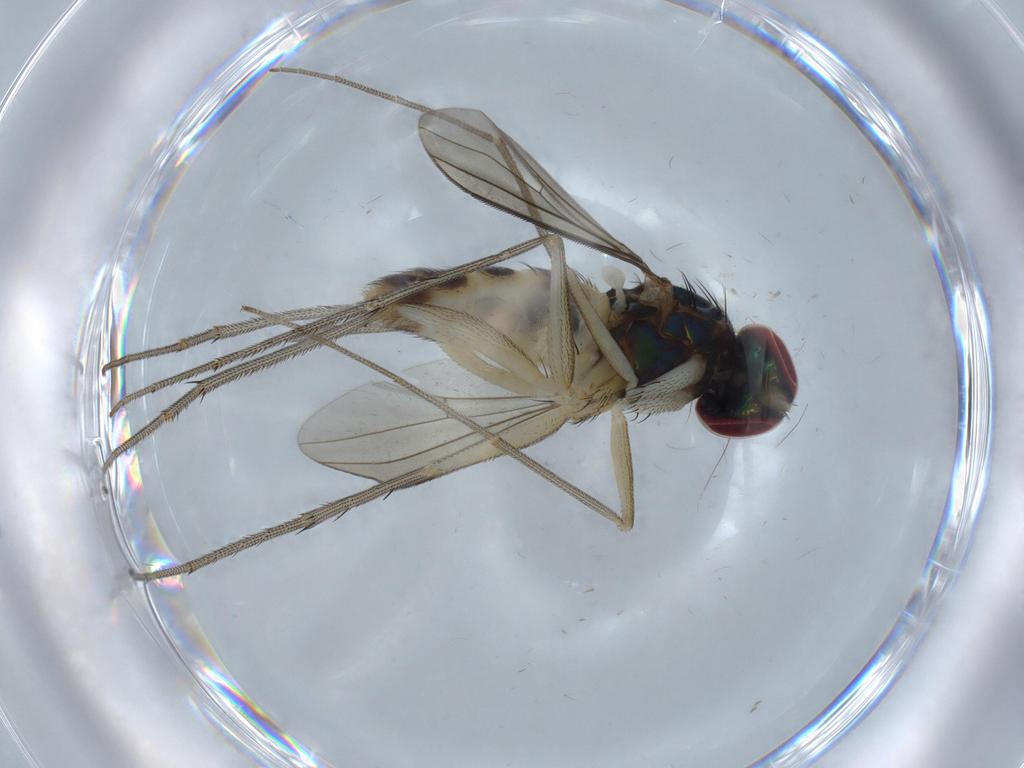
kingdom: Animalia
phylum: Arthropoda
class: Insecta
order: Diptera
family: Dolichopodidae
